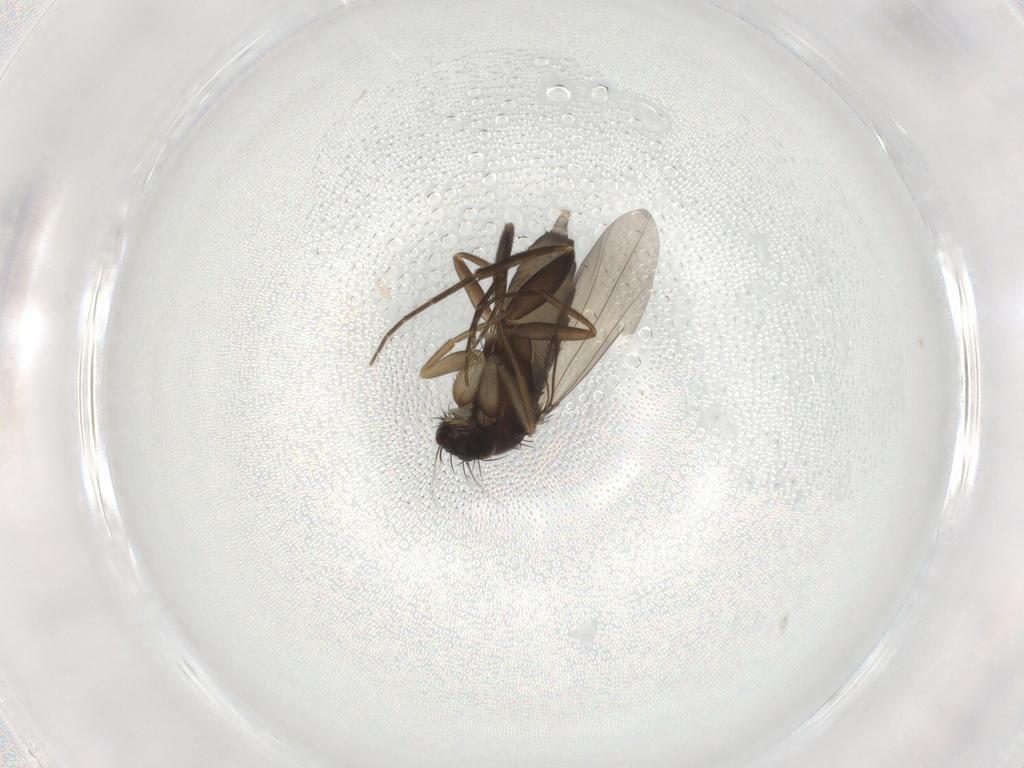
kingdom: Animalia
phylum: Arthropoda
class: Insecta
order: Diptera
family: Phoridae
